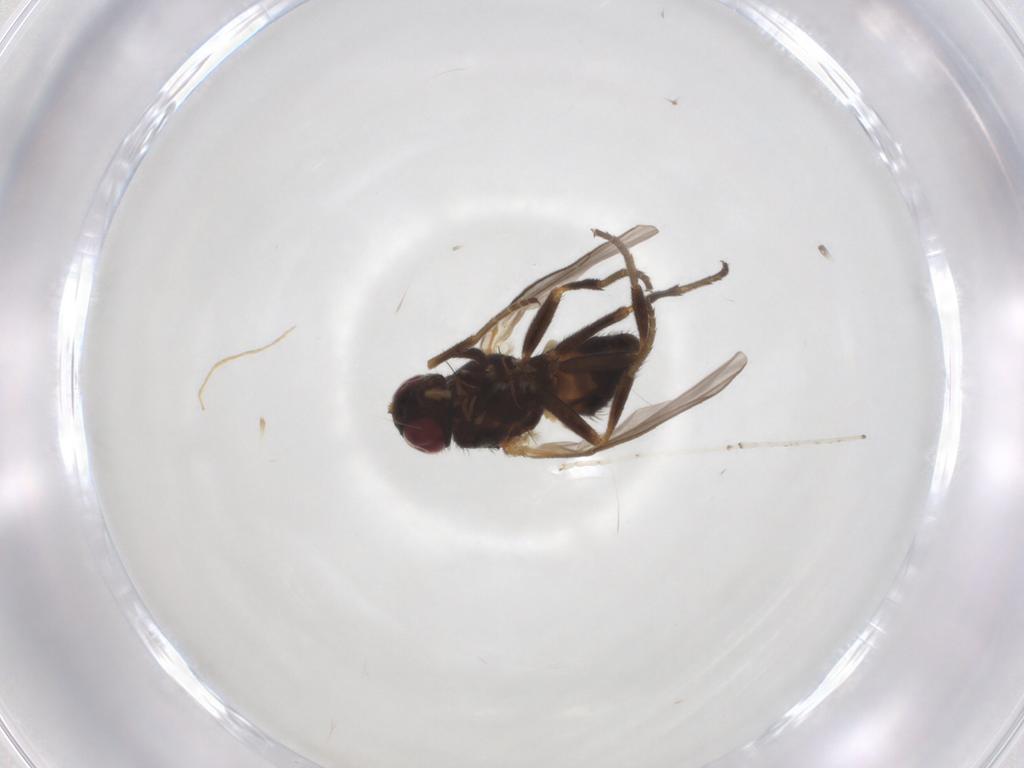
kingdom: Animalia
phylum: Arthropoda
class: Insecta
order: Diptera
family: Agromyzidae
